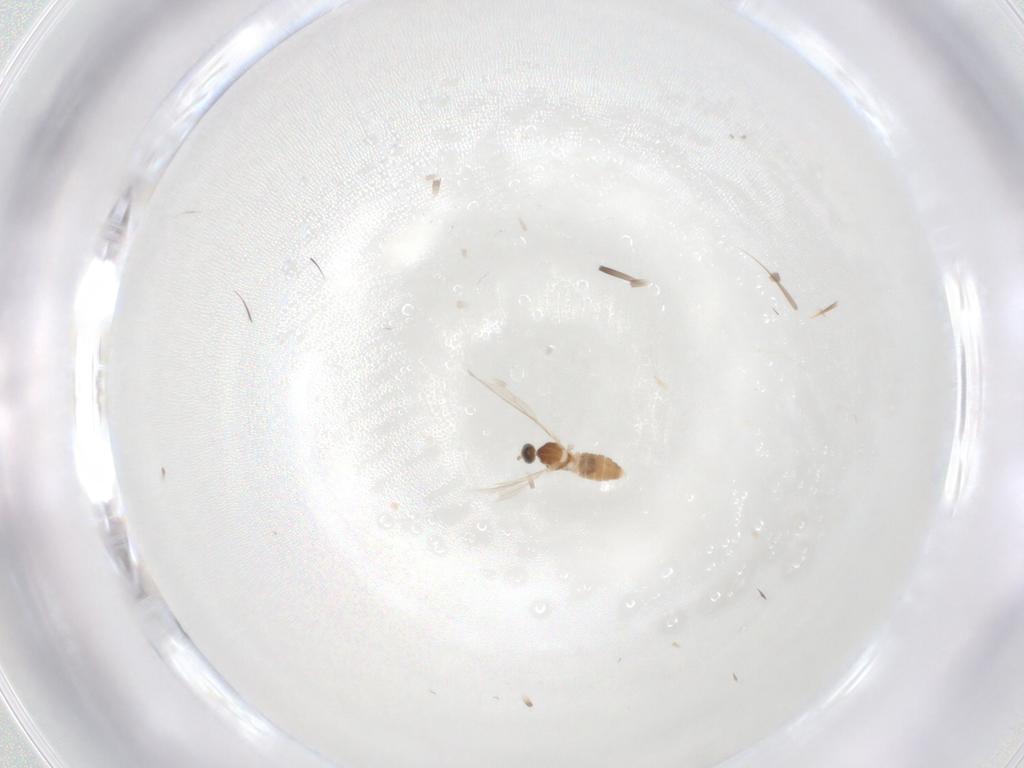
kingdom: Animalia
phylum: Arthropoda
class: Insecta
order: Diptera
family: Cecidomyiidae
